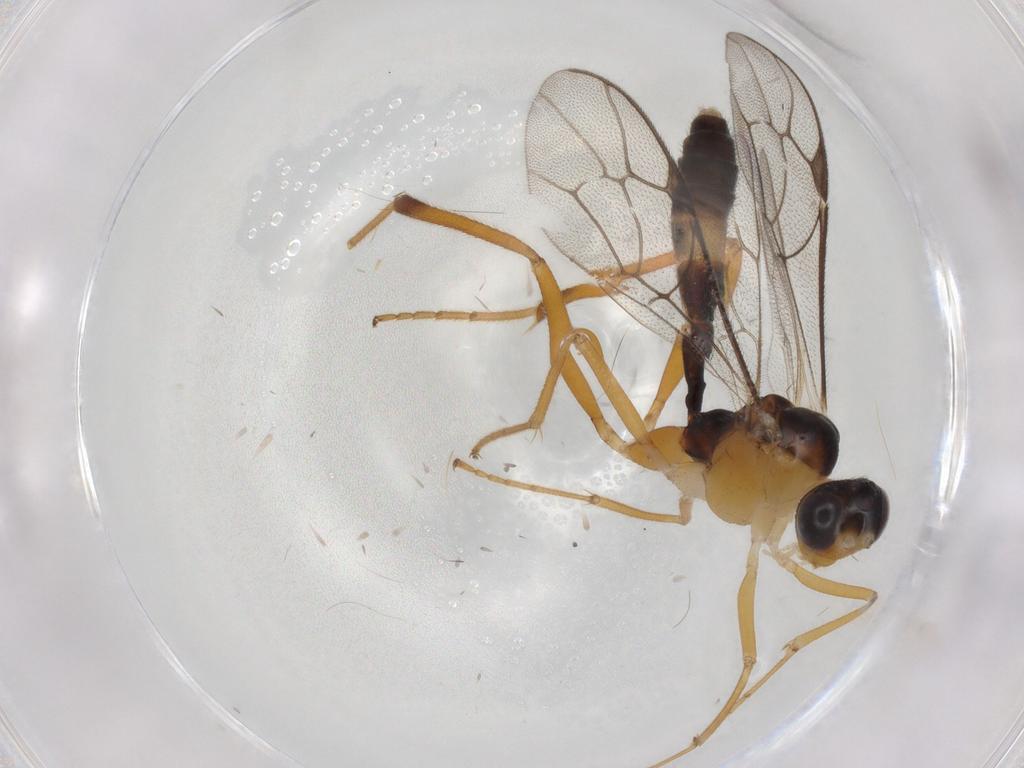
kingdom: Animalia
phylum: Arthropoda
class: Insecta
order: Hymenoptera
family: Ichneumonidae
